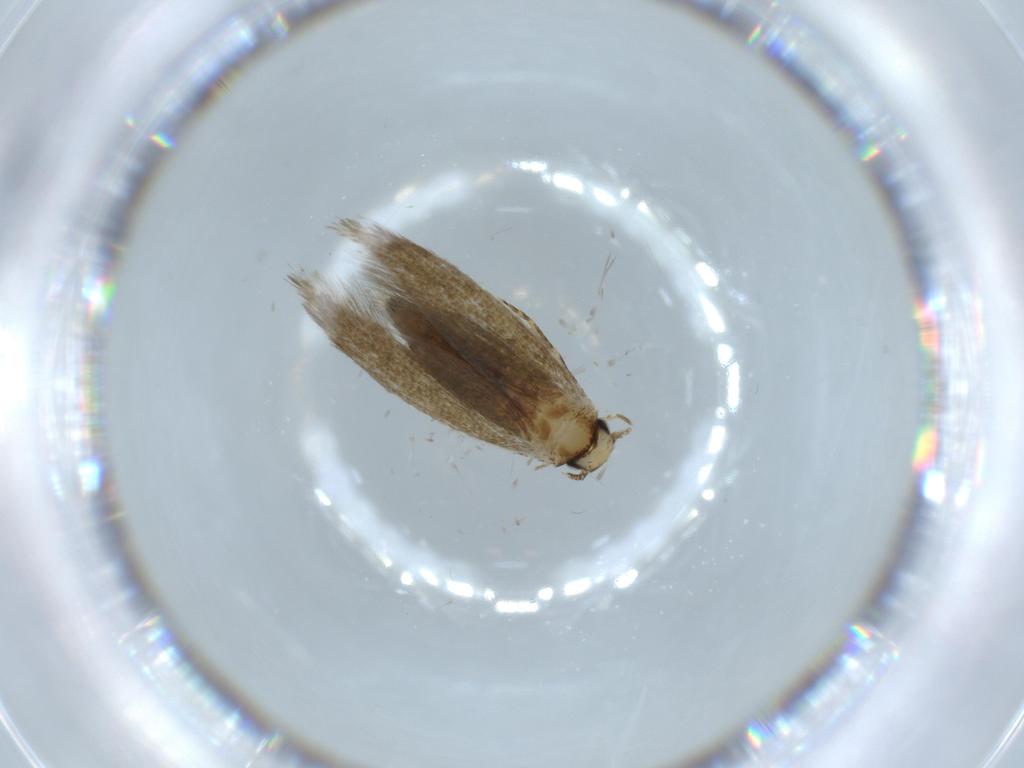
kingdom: Animalia
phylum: Arthropoda
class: Insecta
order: Lepidoptera
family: Tineidae
